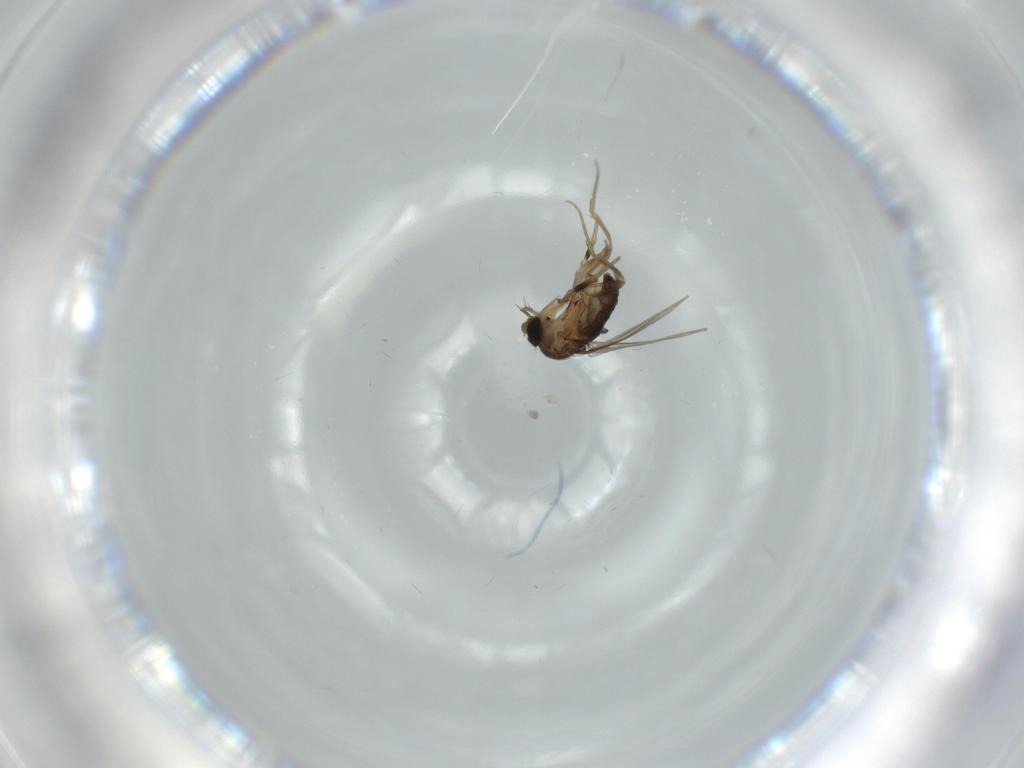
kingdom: Animalia
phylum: Arthropoda
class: Insecta
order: Diptera
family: Phoridae
